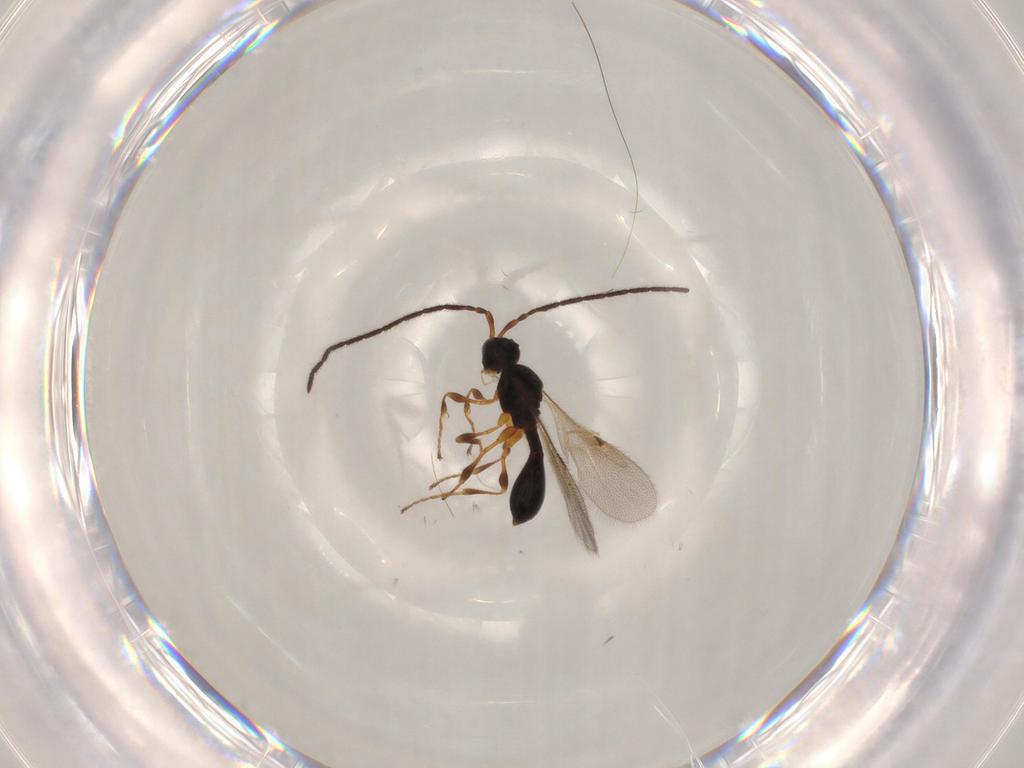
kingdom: Animalia
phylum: Arthropoda
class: Insecta
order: Hymenoptera
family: Diapriidae
